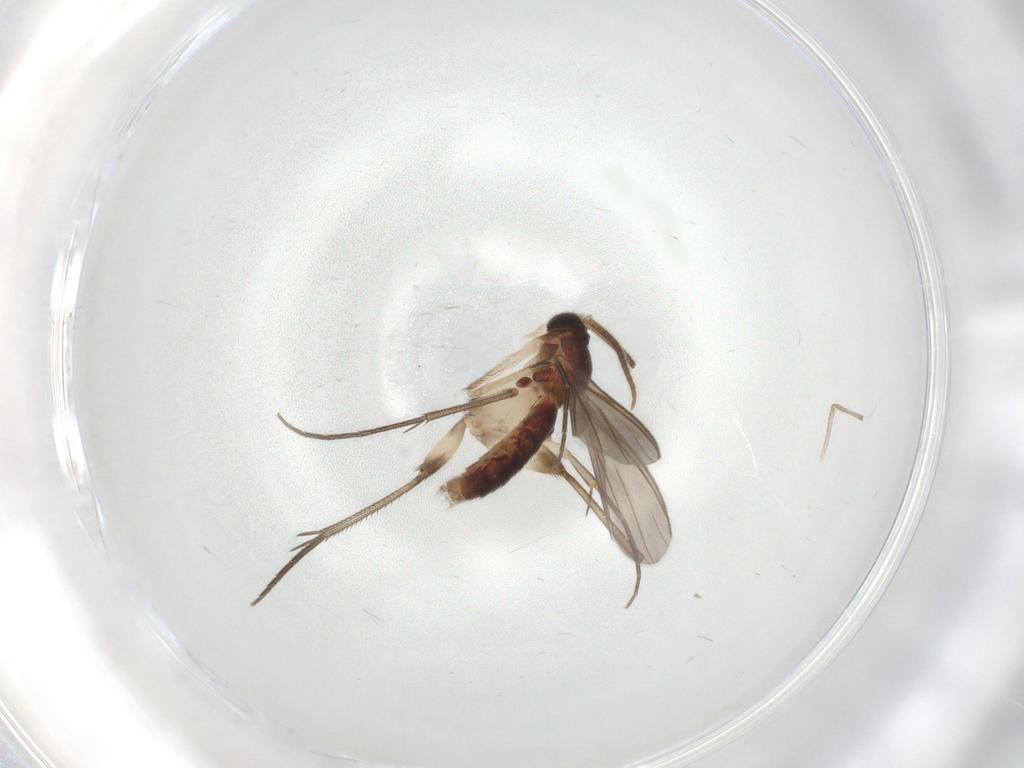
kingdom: Animalia
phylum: Arthropoda
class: Insecta
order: Diptera
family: Mycetophilidae
